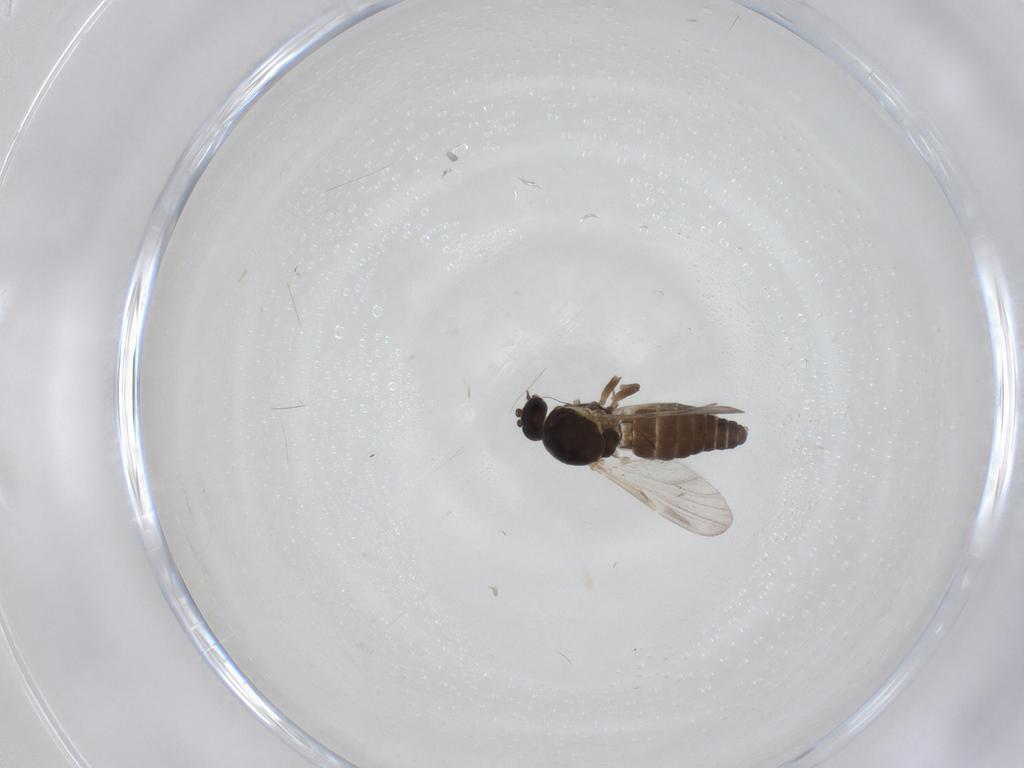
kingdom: Animalia
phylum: Arthropoda
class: Insecta
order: Diptera
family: Ceratopogonidae
